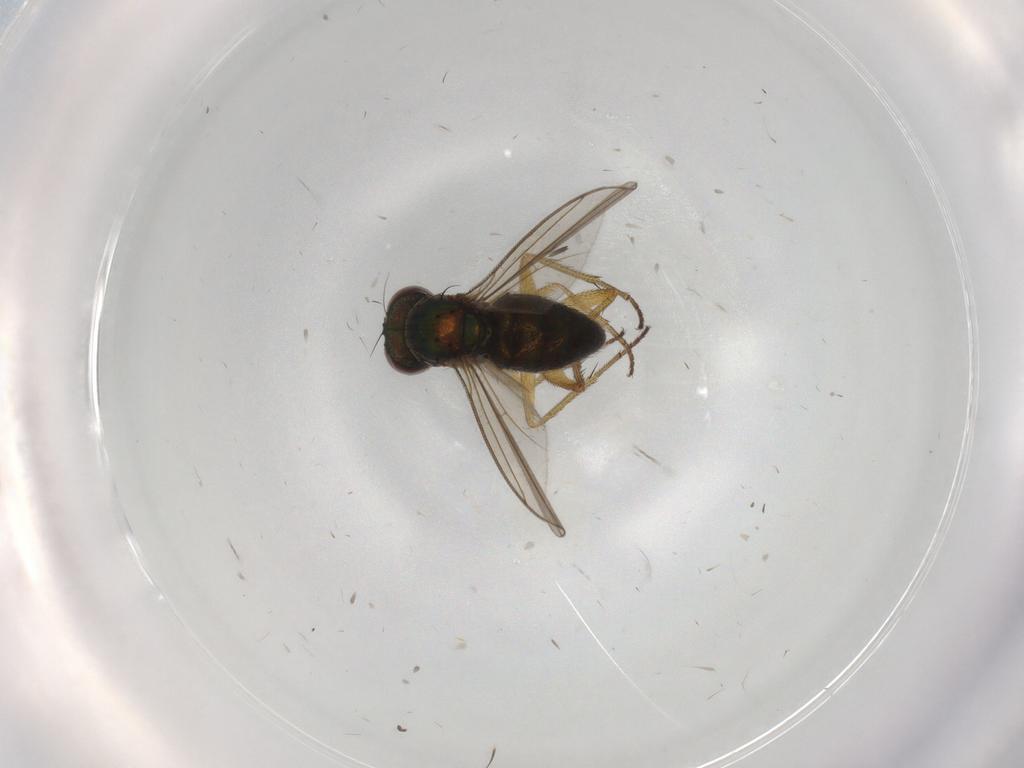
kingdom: Animalia
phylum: Arthropoda
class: Insecta
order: Diptera
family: Limoniidae
